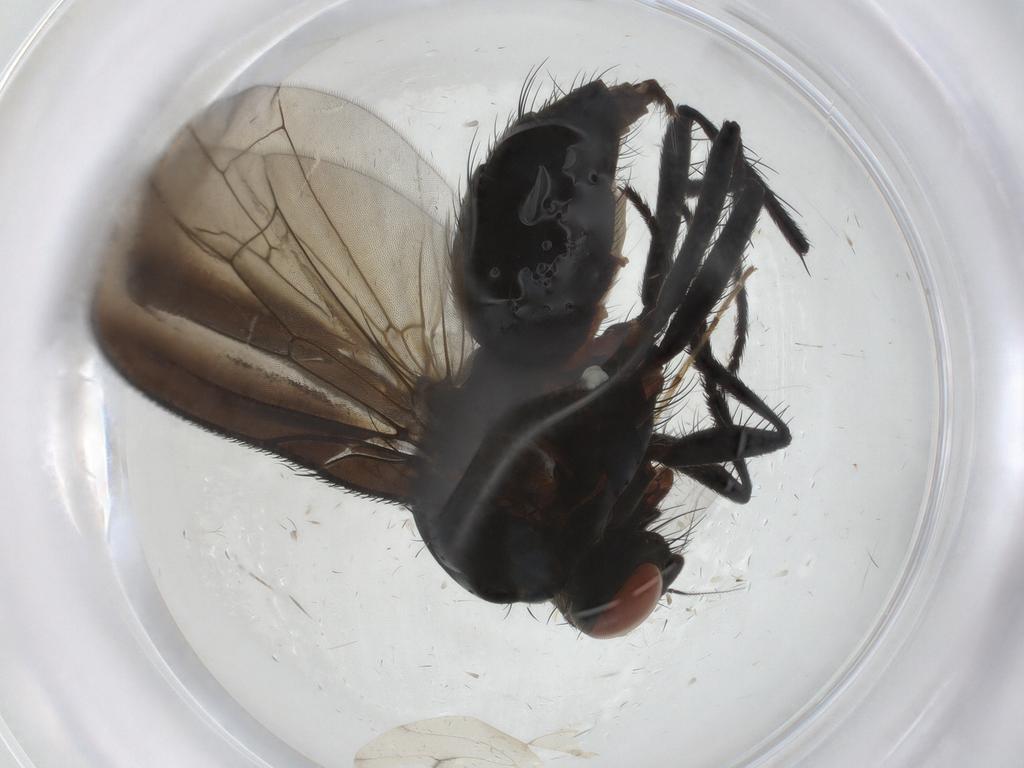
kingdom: Animalia
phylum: Arthropoda
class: Insecta
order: Diptera
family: Anthomyiidae
